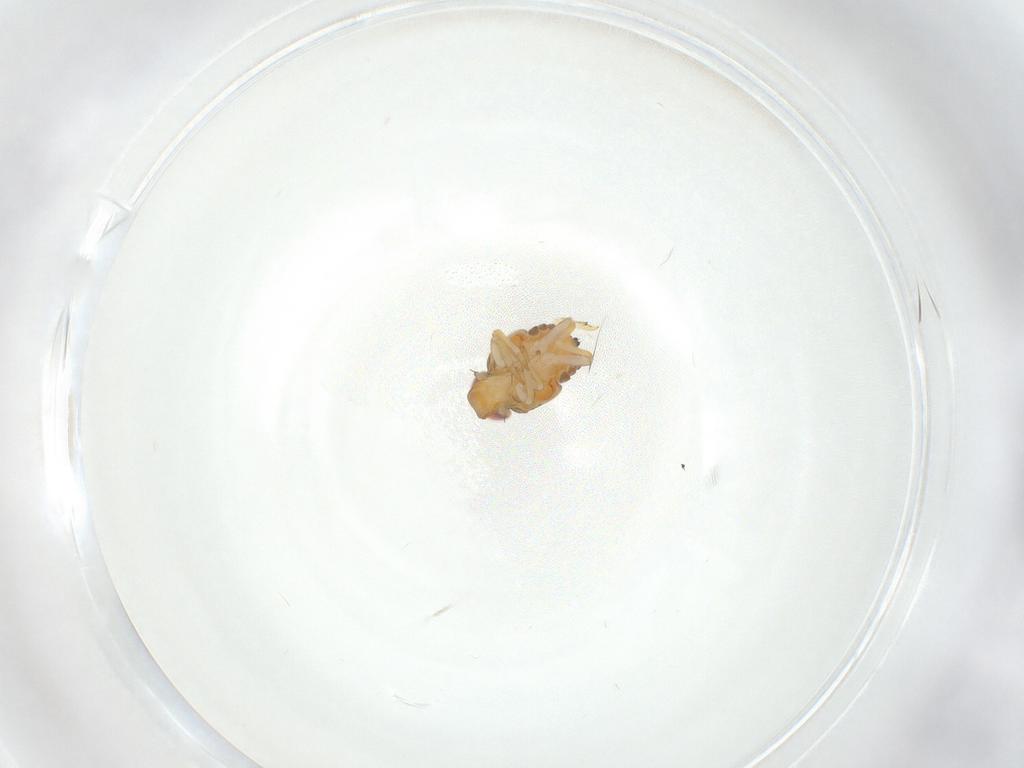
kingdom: Animalia
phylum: Arthropoda
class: Insecta
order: Hemiptera
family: Issidae
